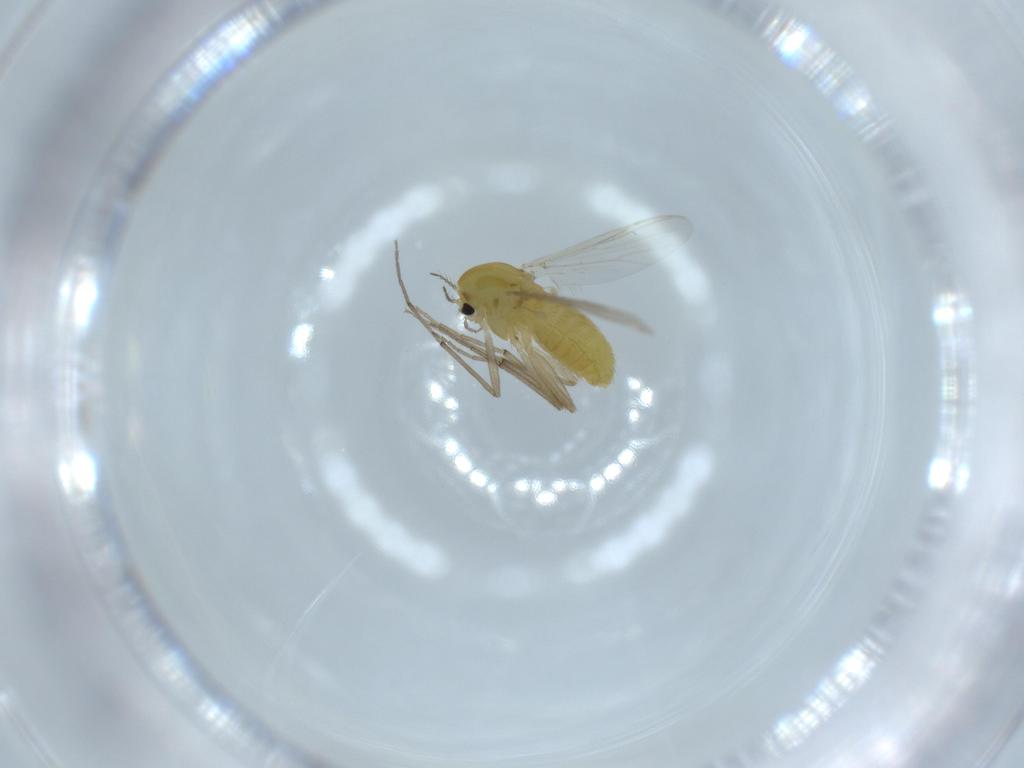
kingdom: Animalia
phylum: Arthropoda
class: Insecta
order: Diptera
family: Chironomidae
